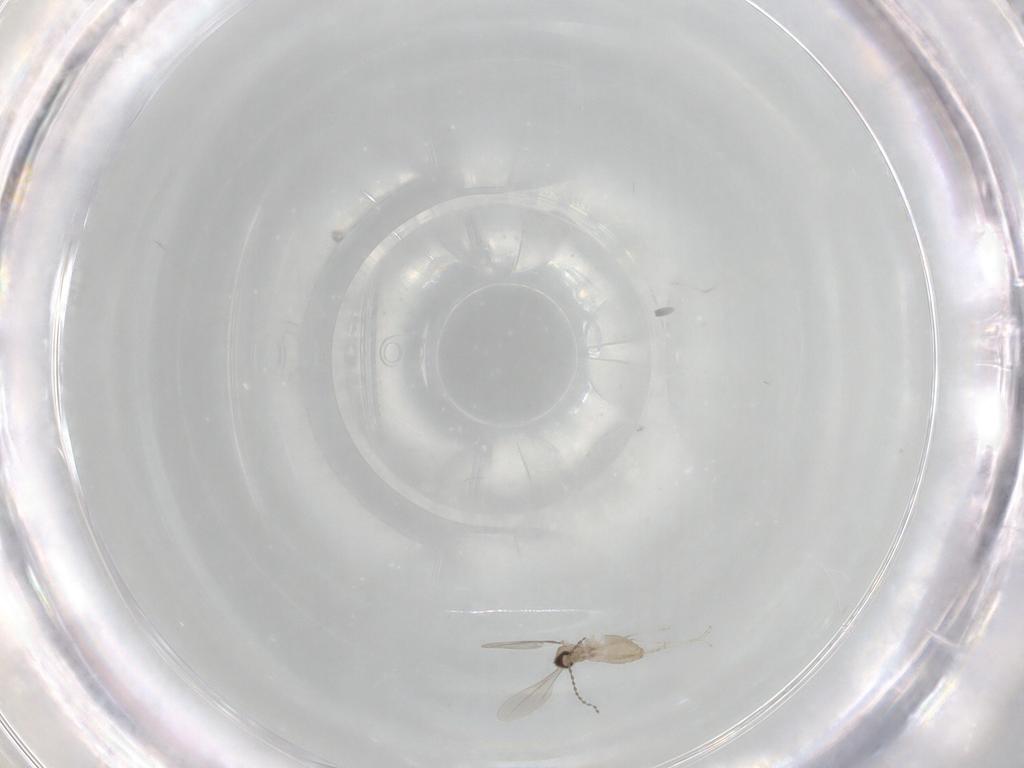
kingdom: Animalia
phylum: Arthropoda
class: Insecta
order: Diptera
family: Cecidomyiidae
